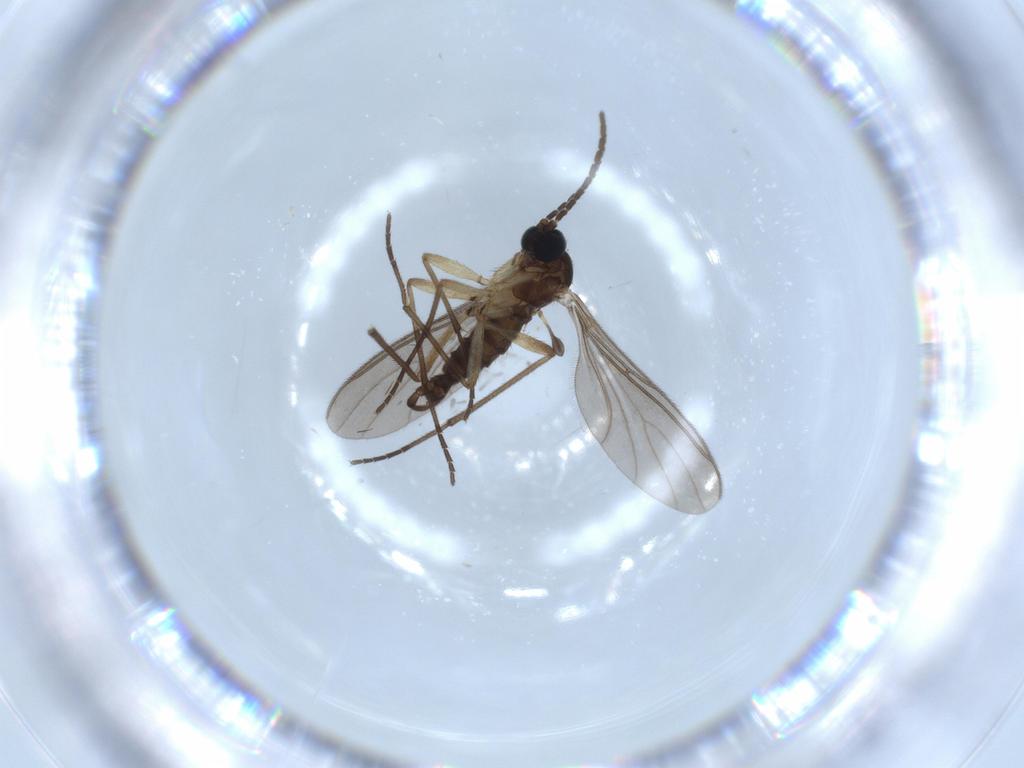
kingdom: Animalia
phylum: Arthropoda
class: Insecta
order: Diptera
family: Sciaridae
